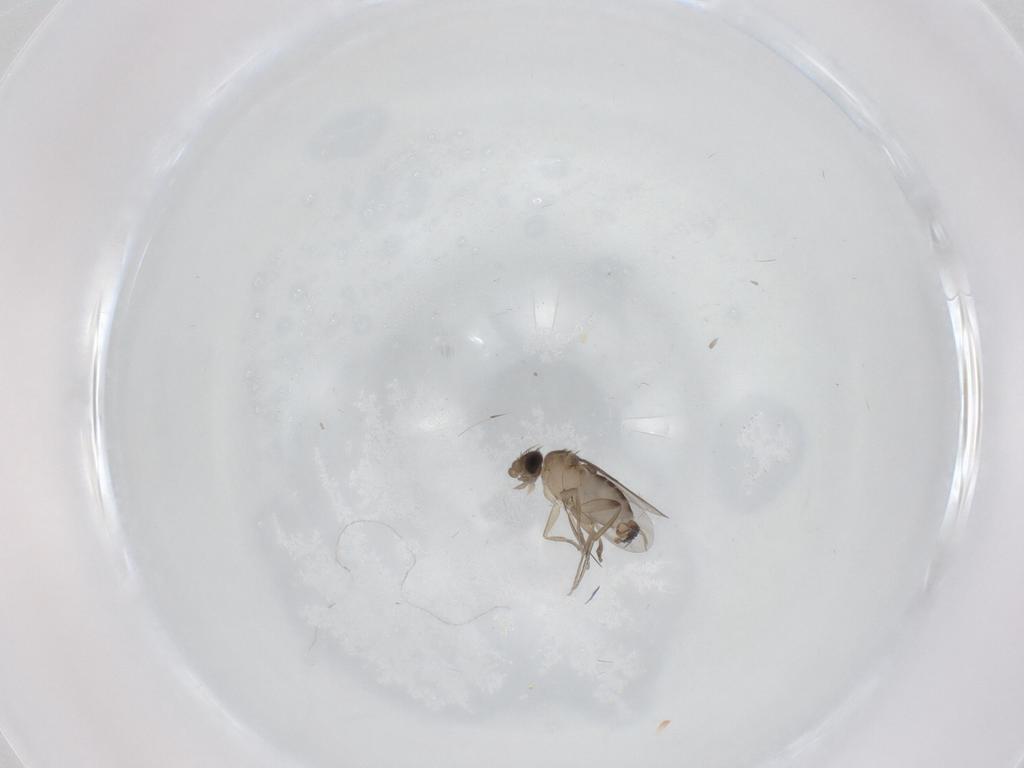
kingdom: Animalia
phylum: Arthropoda
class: Insecta
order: Diptera
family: Phoridae
